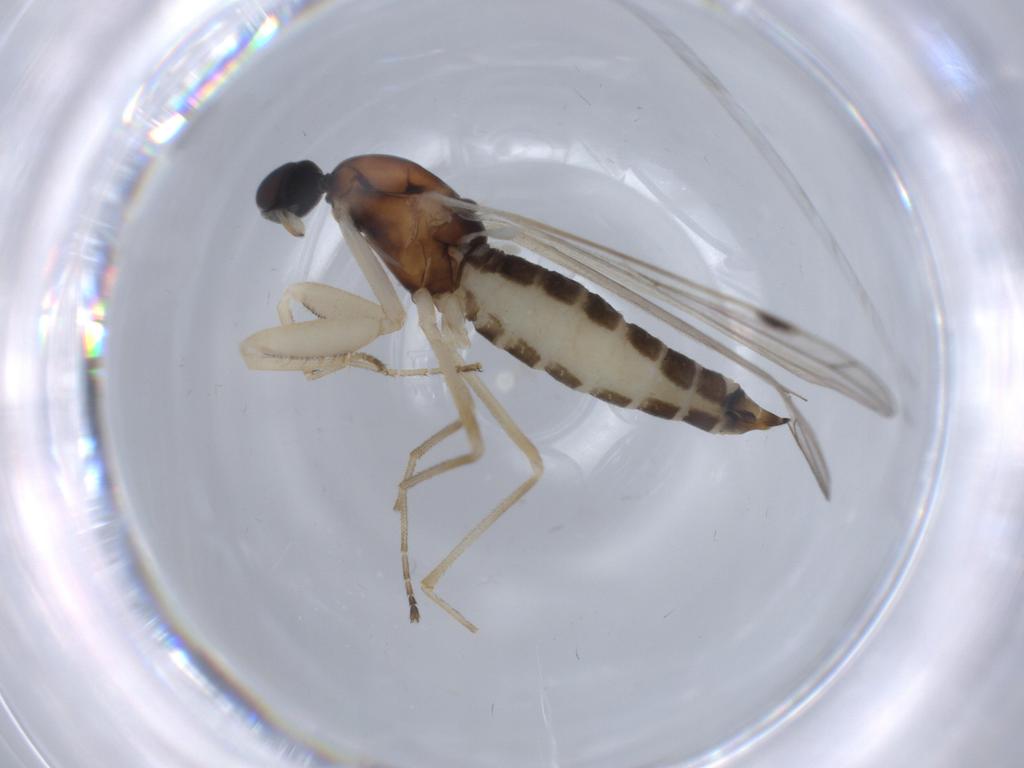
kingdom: Animalia
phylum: Arthropoda
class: Insecta
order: Diptera
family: Empididae
